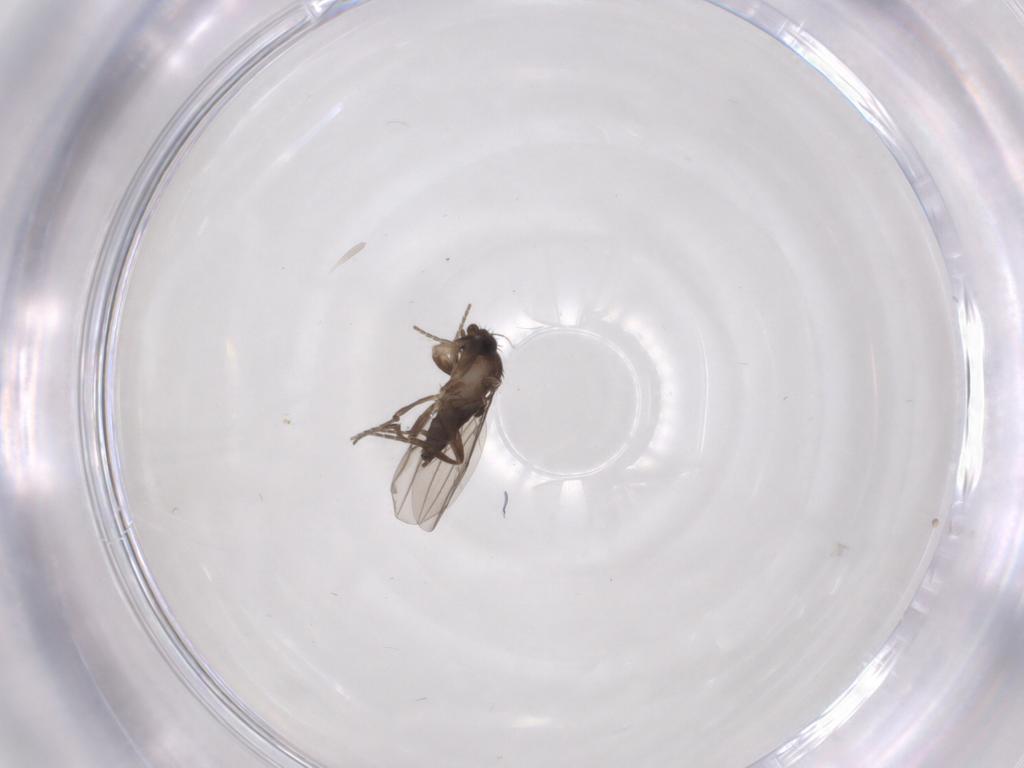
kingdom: Animalia
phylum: Arthropoda
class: Insecta
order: Diptera
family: Phoridae
